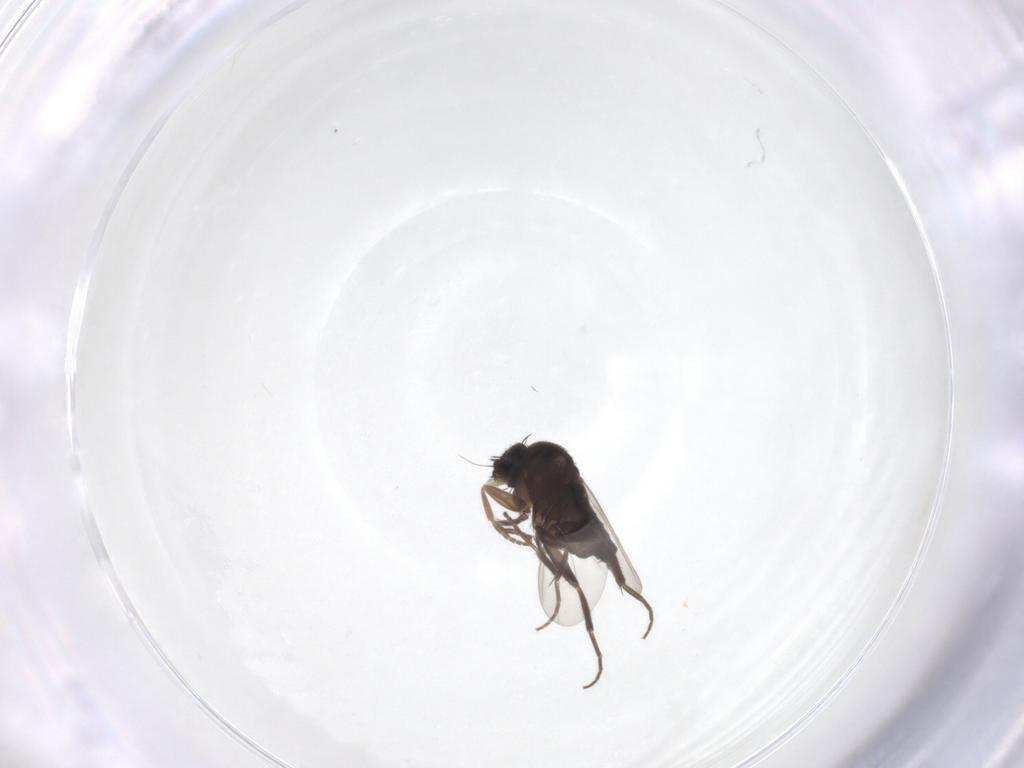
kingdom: Animalia
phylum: Arthropoda
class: Insecta
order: Diptera
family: Phoridae
